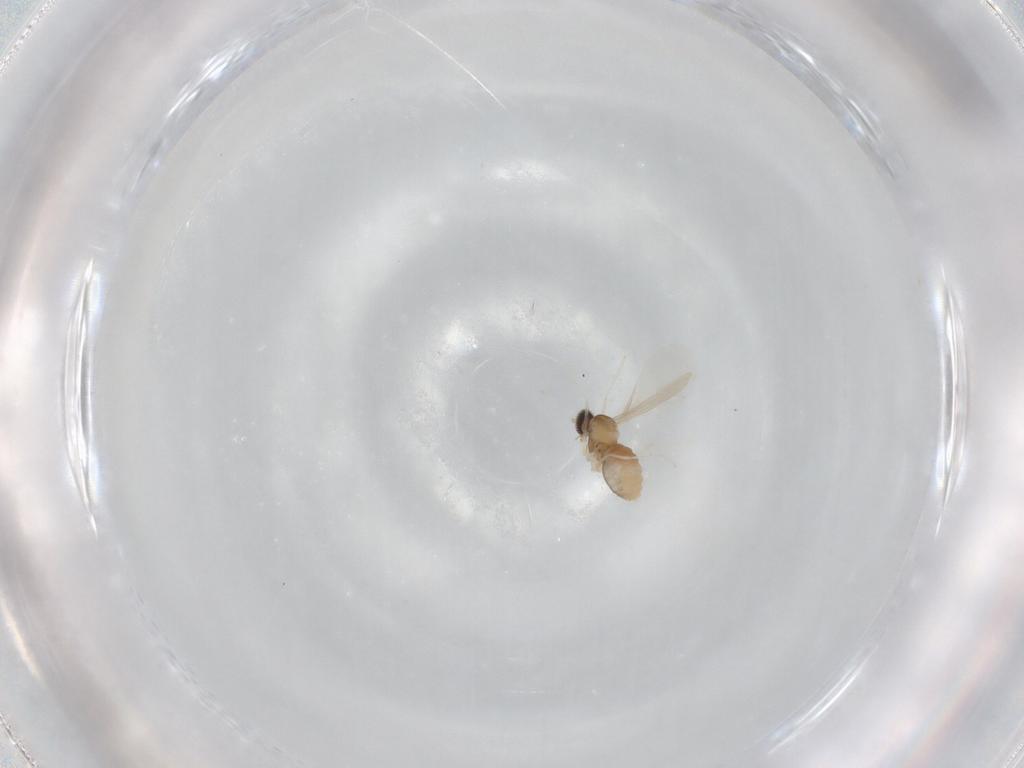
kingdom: Animalia
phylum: Arthropoda
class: Insecta
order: Diptera
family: Cecidomyiidae
